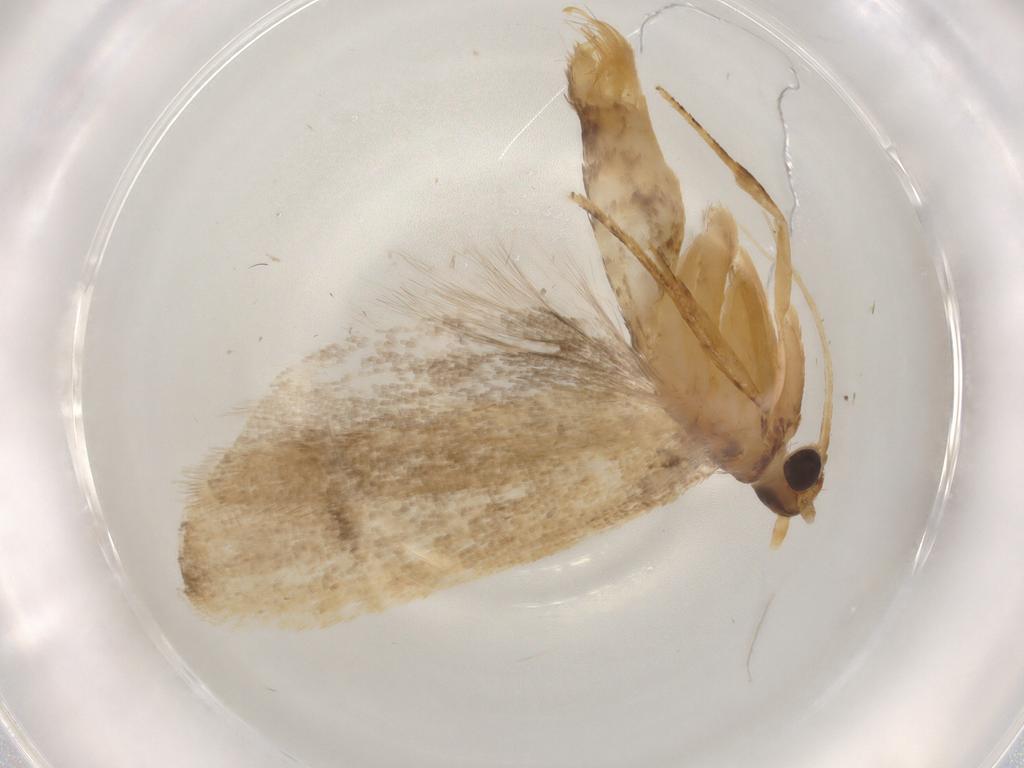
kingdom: Animalia
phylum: Arthropoda
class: Insecta
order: Lepidoptera
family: Lecithoceridae
